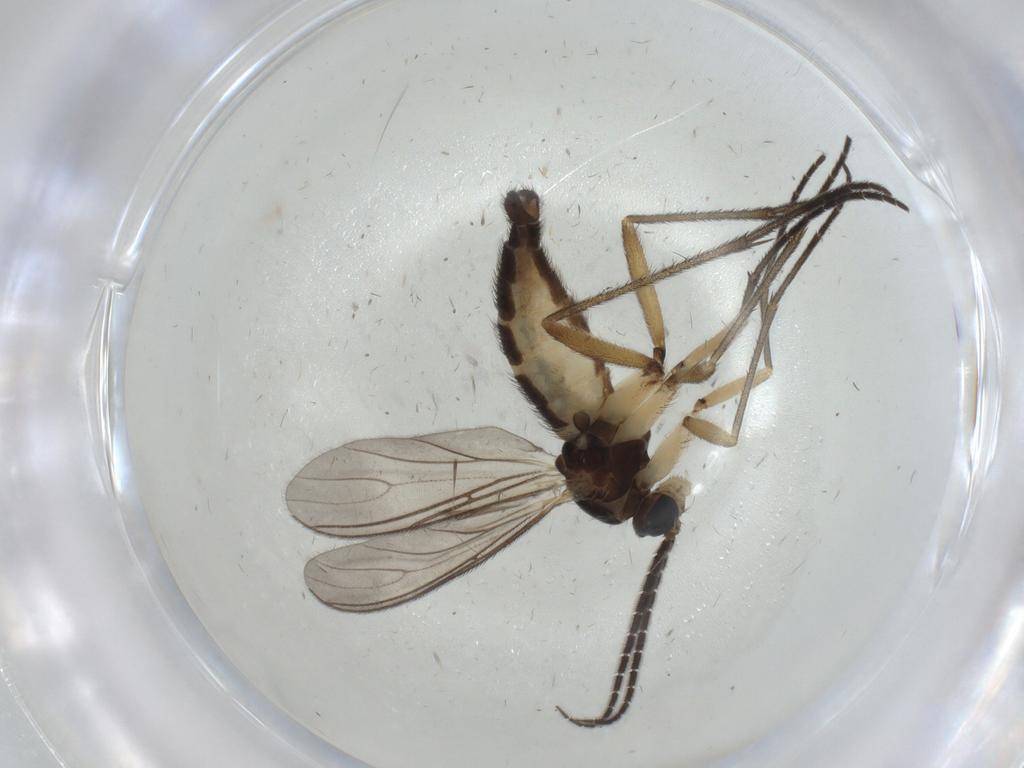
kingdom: Animalia
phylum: Arthropoda
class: Insecta
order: Diptera
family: Sciaridae
